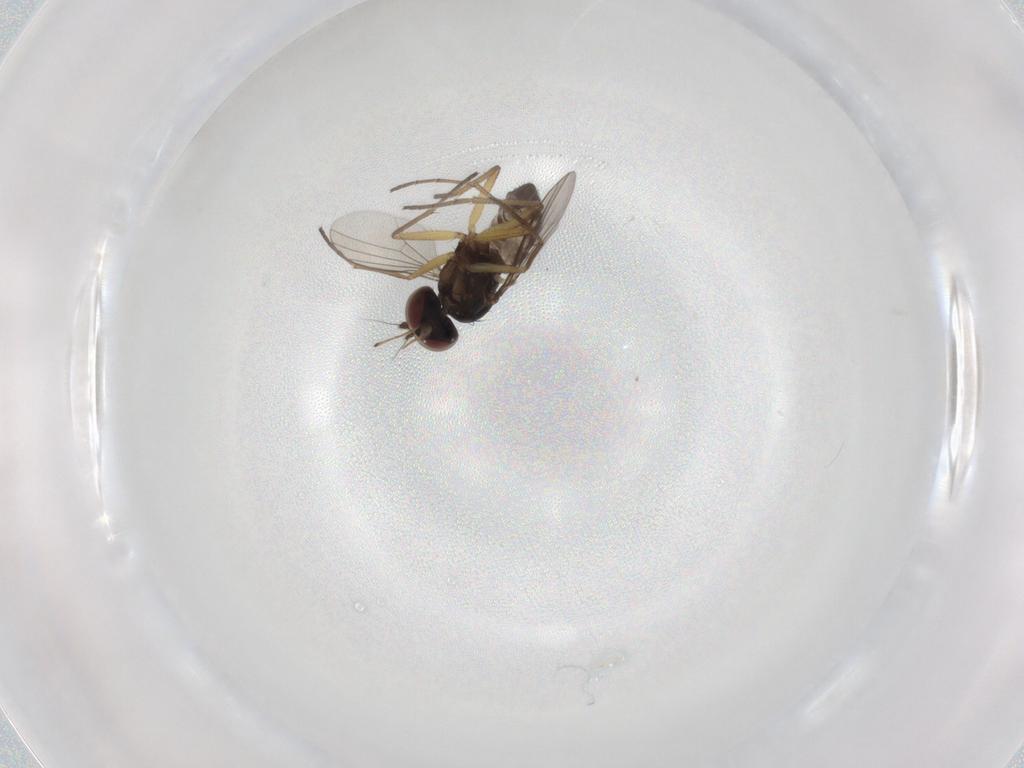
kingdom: Animalia
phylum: Arthropoda
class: Insecta
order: Diptera
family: Dolichopodidae
